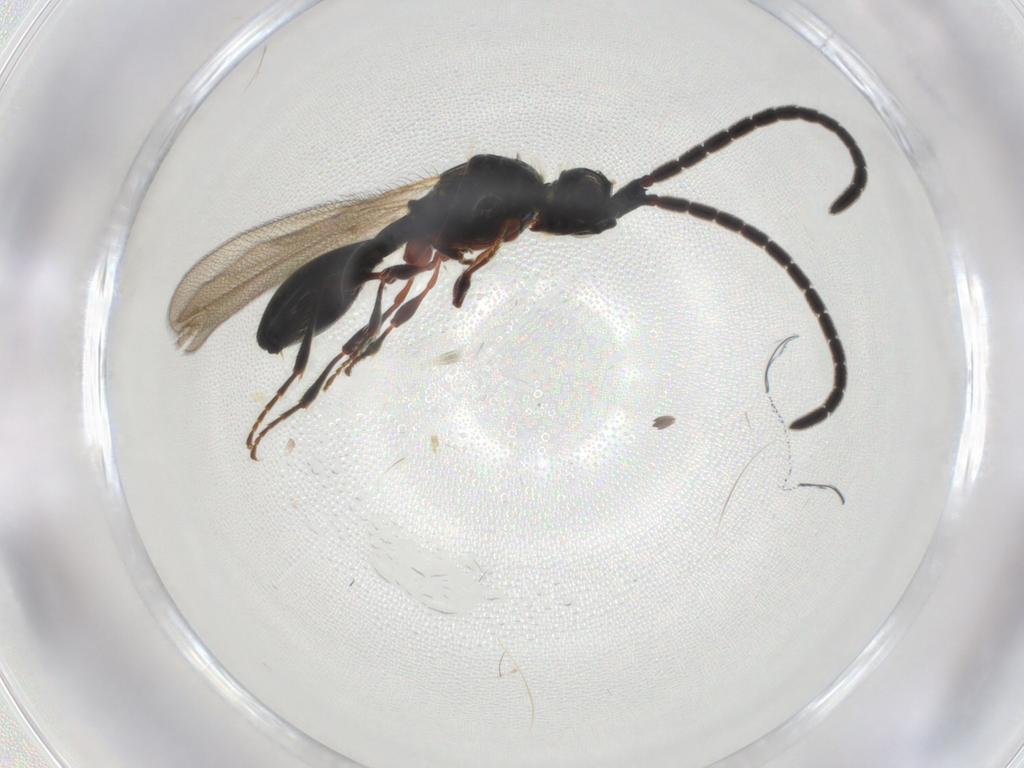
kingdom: Animalia
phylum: Arthropoda
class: Insecta
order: Hymenoptera
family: Diapriidae
